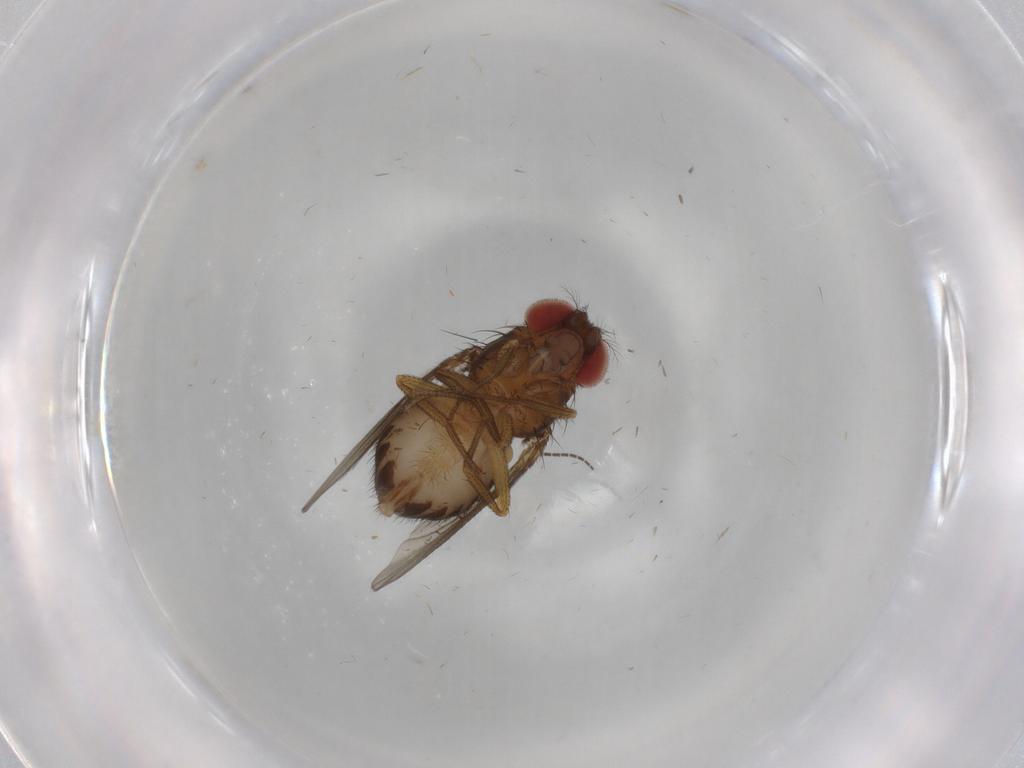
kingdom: Animalia
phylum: Arthropoda
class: Insecta
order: Diptera
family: Drosophilidae
